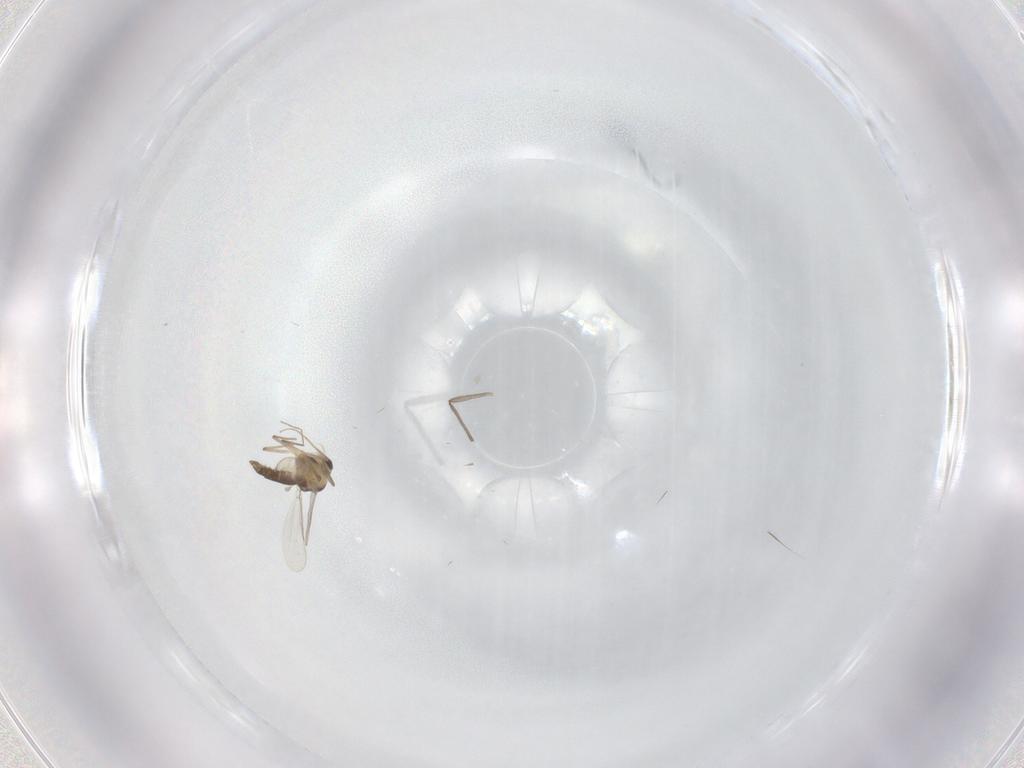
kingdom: Animalia
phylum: Arthropoda
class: Insecta
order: Diptera
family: Chironomidae
